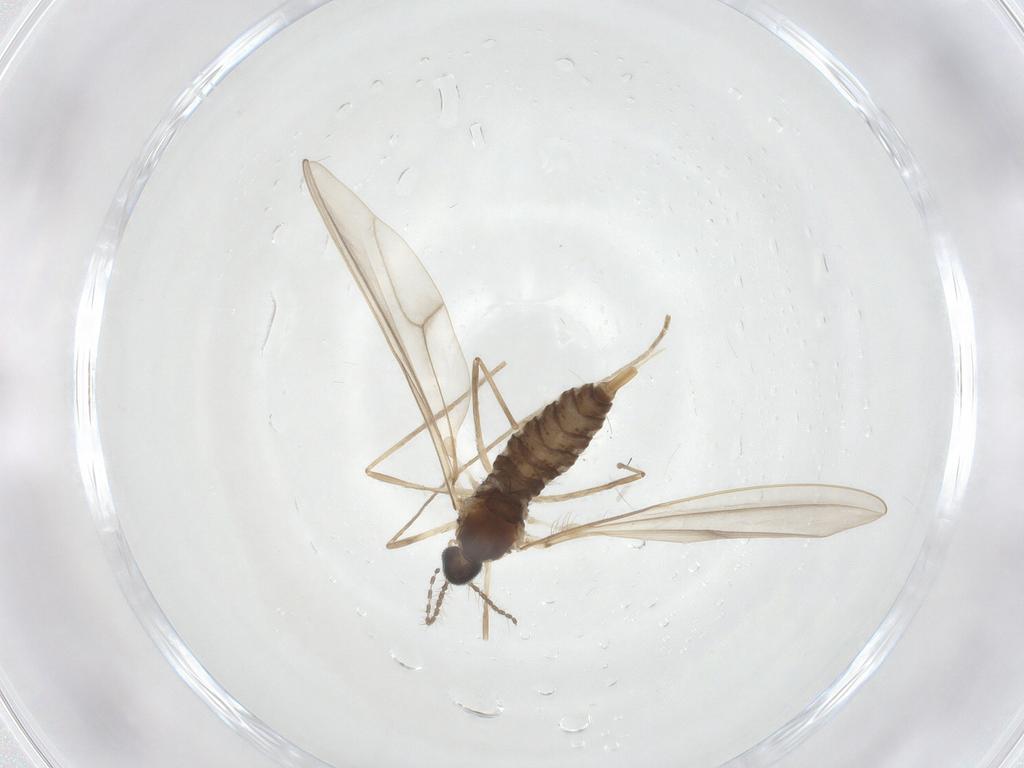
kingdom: Animalia
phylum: Arthropoda
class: Insecta
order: Diptera
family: Cecidomyiidae
